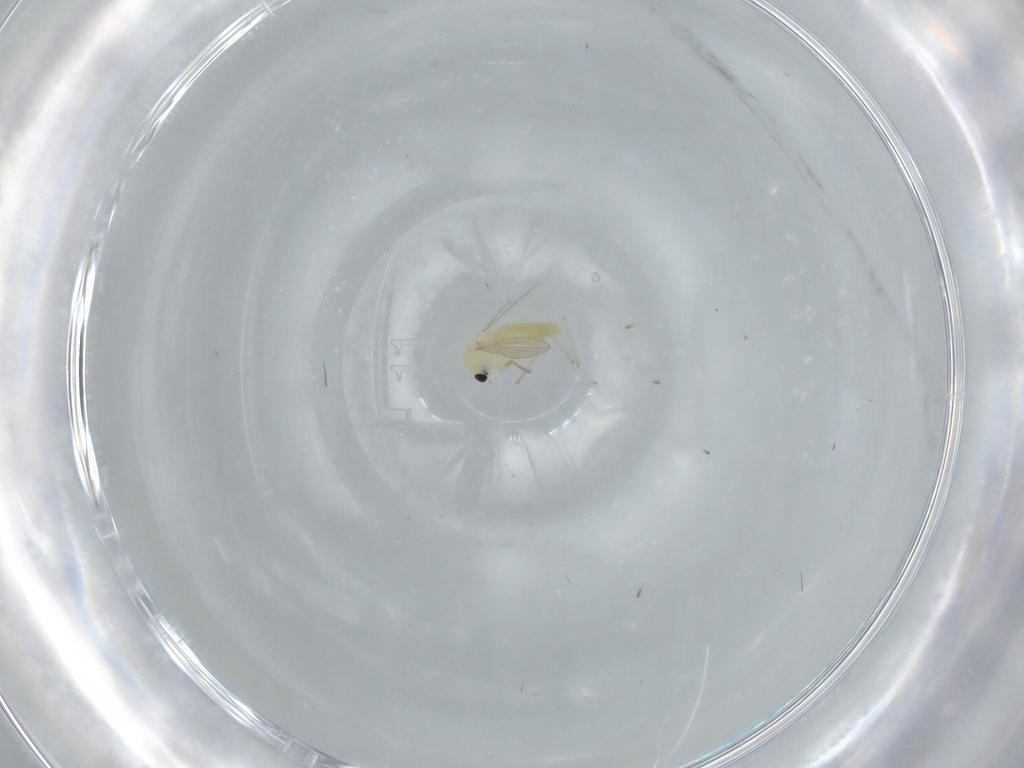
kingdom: Animalia
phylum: Arthropoda
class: Insecta
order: Diptera
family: Chironomidae
